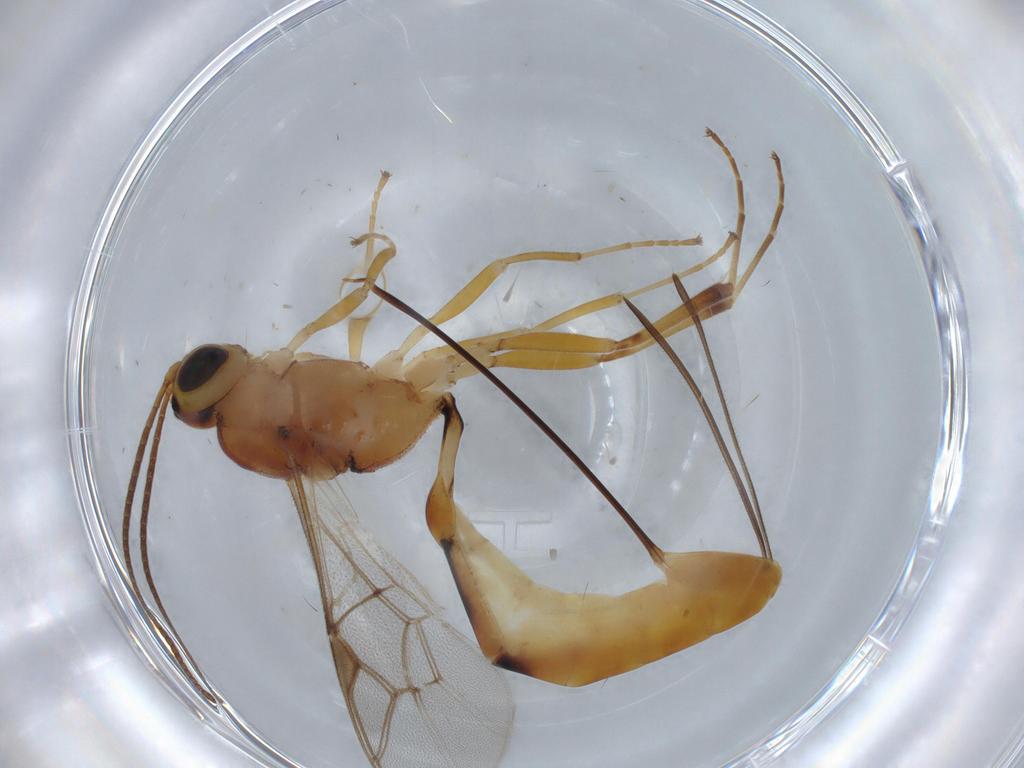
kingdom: Animalia
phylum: Arthropoda
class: Insecta
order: Hymenoptera
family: Ichneumonidae
